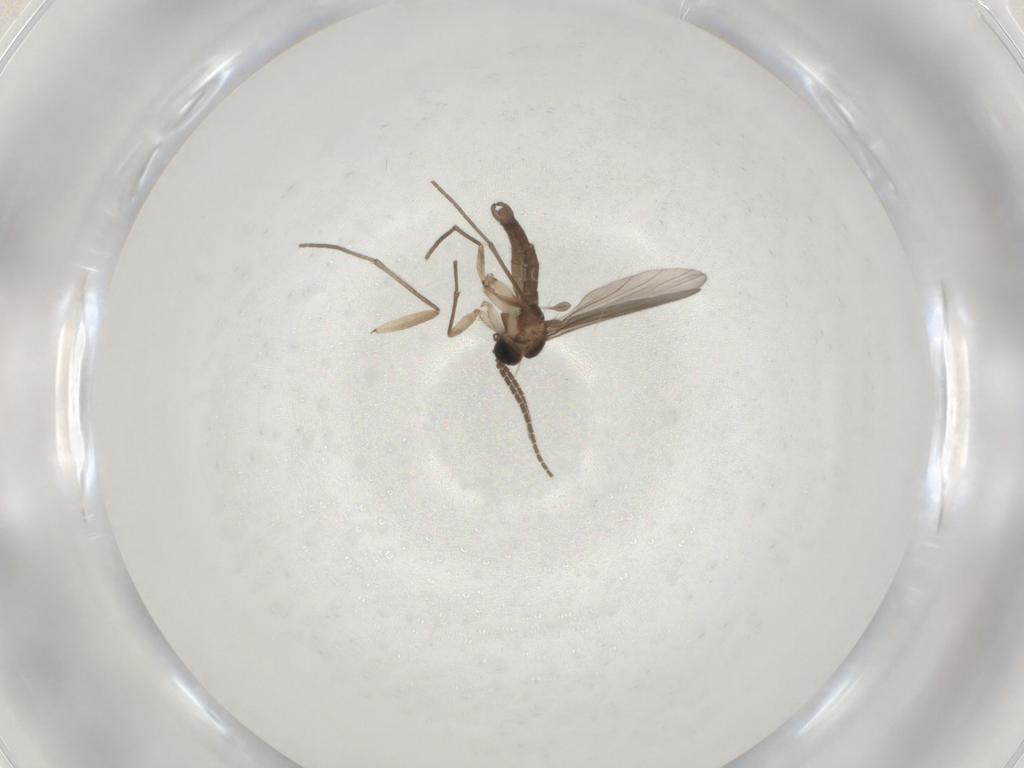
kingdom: Animalia
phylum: Arthropoda
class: Insecta
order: Diptera
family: Sciaridae
